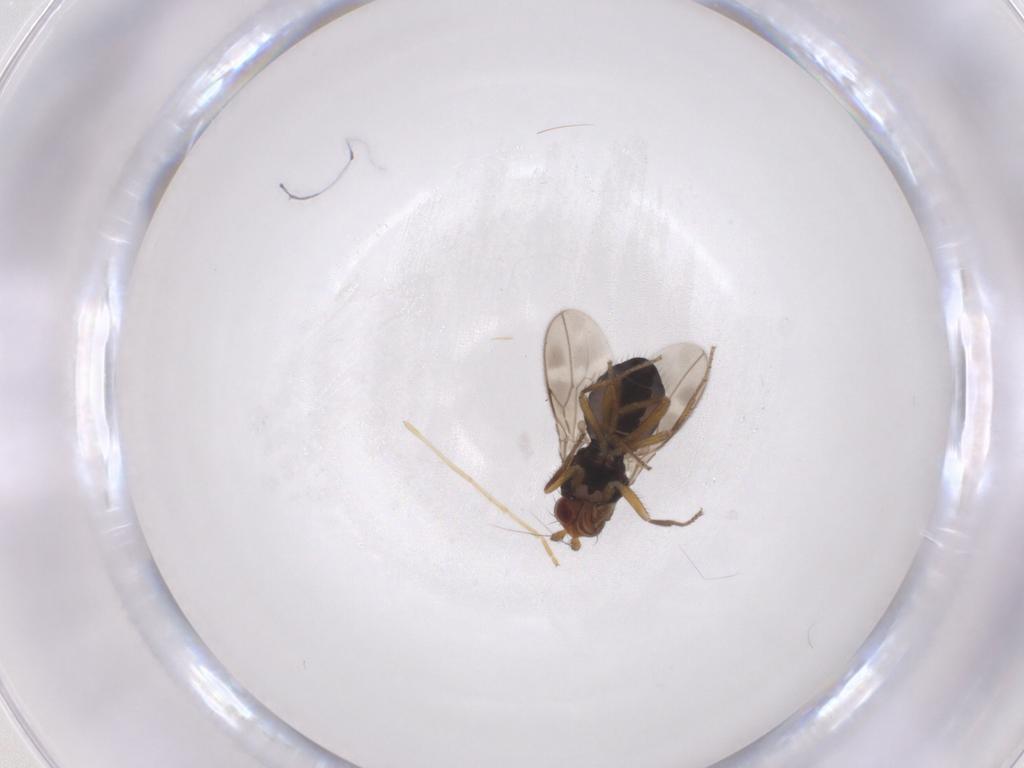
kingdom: Animalia
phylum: Arthropoda
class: Insecta
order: Diptera
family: Sphaeroceridae
